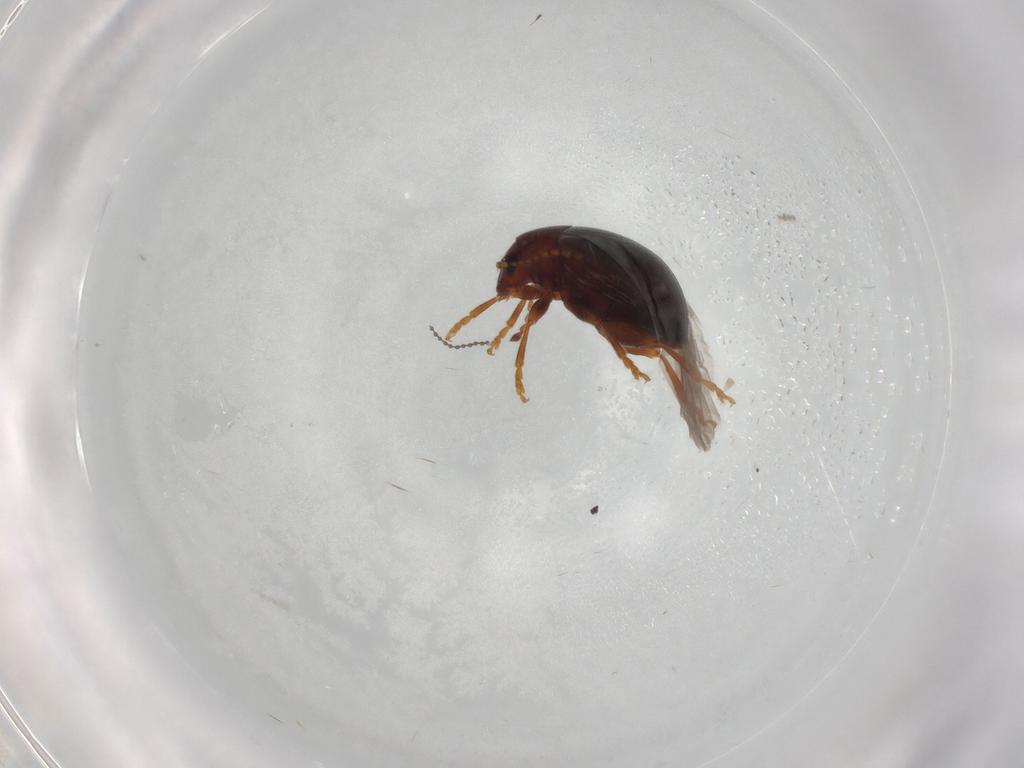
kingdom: Animalia
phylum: Arthropoda
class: Insecta
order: Coleoptera
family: Chrysomelidae
